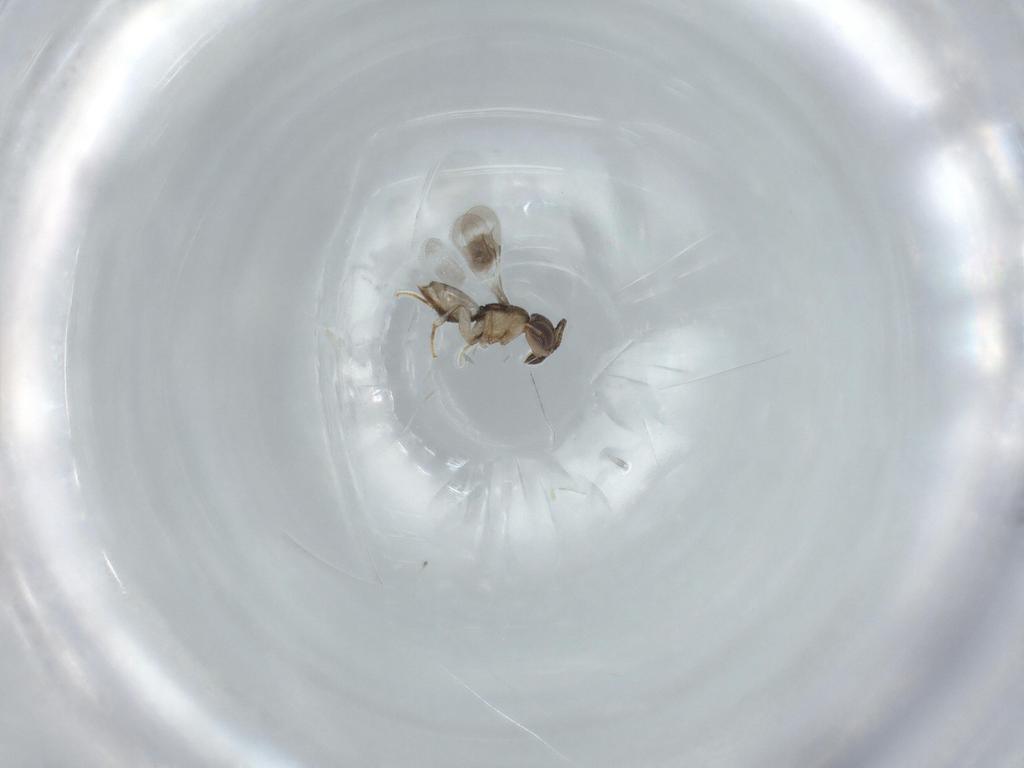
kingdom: Animalia
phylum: Arthropoda
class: Insecta
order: Hymenoptera
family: Ceraphronidae
